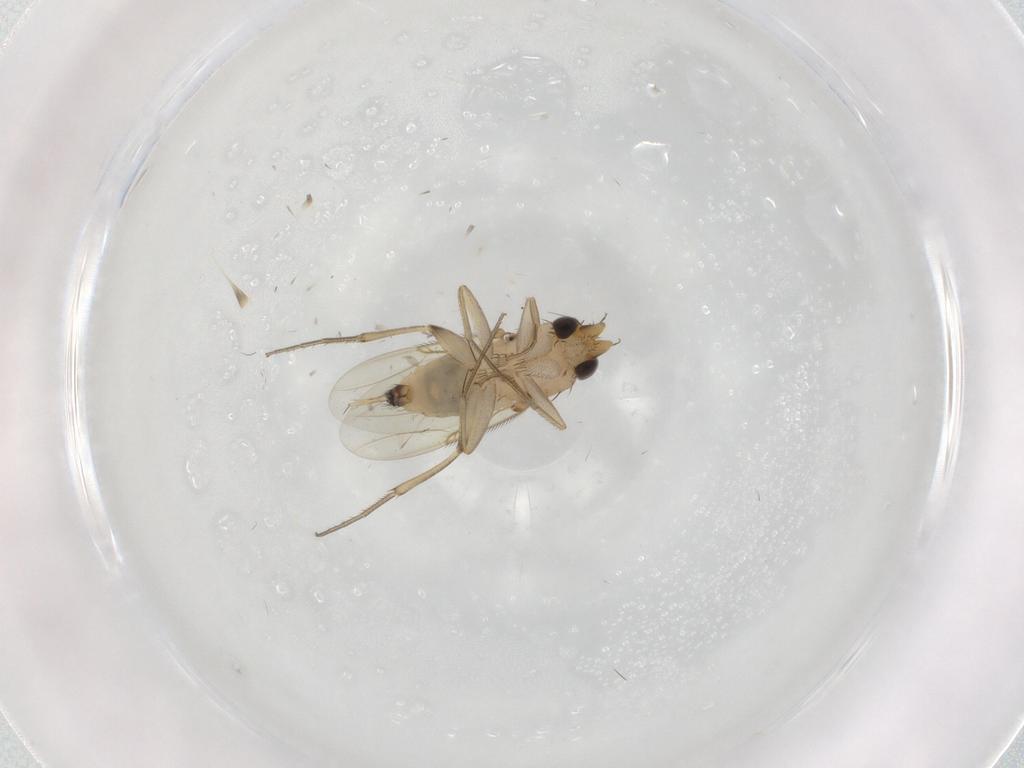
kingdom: Animalia
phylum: Arthropoda
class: Insecta
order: Diptera
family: Phoridae
